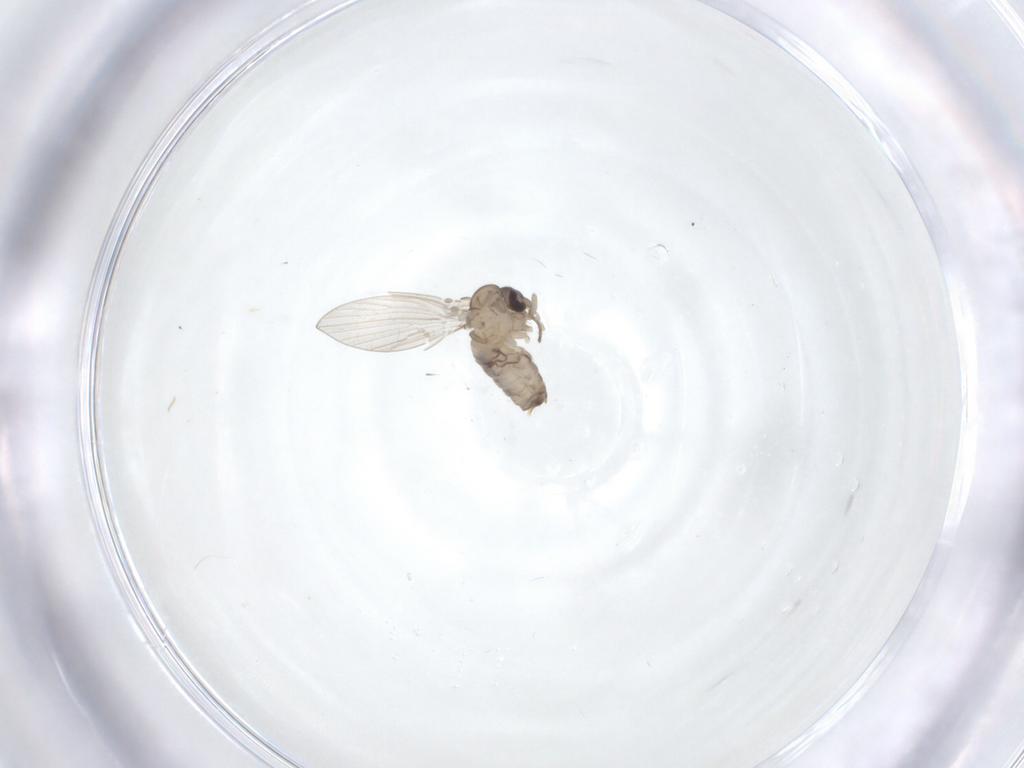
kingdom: Animalia
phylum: Arthropoda
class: Insecta
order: Diptera
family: Psychodidae
